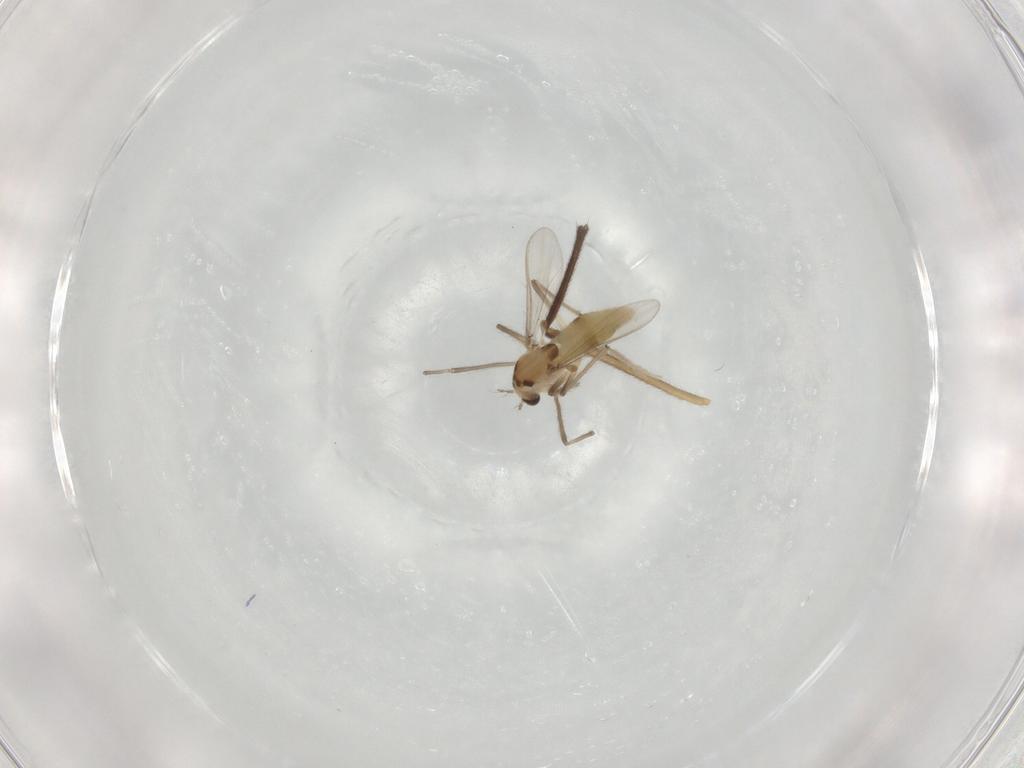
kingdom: Animalia
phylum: Arthropoda
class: Insecta
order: Diptera
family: Chironomidae
